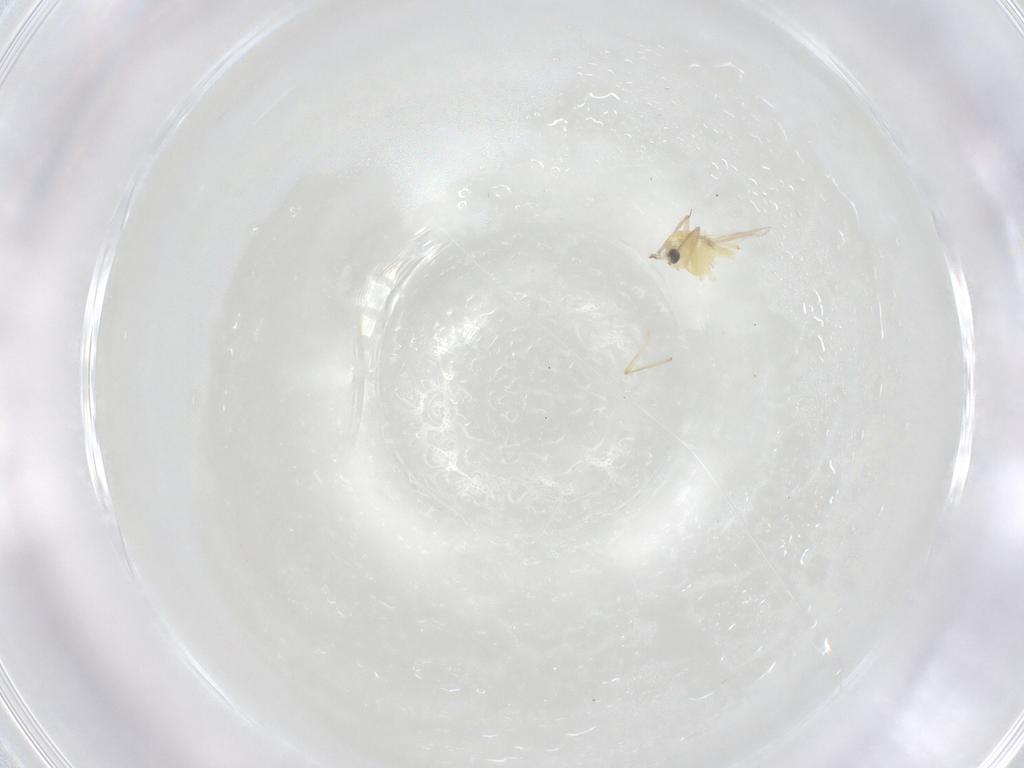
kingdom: Animalia
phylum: Arthropoda
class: Insecta
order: Diptera
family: Chironomidae
